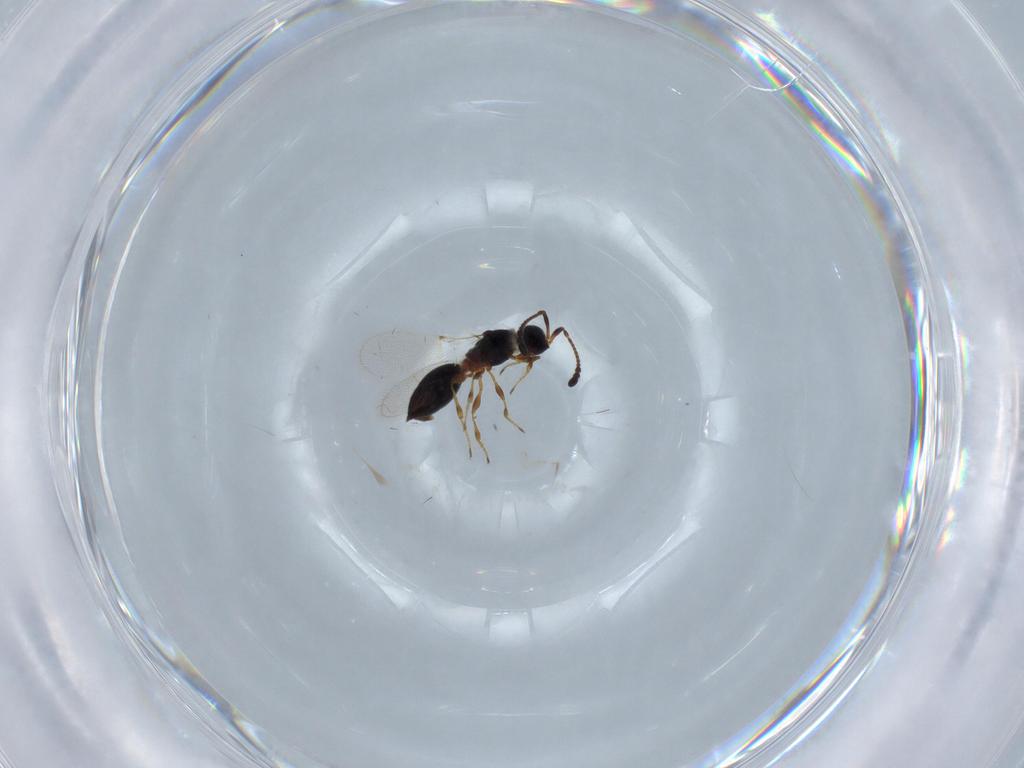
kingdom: Animalia
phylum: Arthropoda
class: Insecta
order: Hymenoptera
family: Diapriidae
